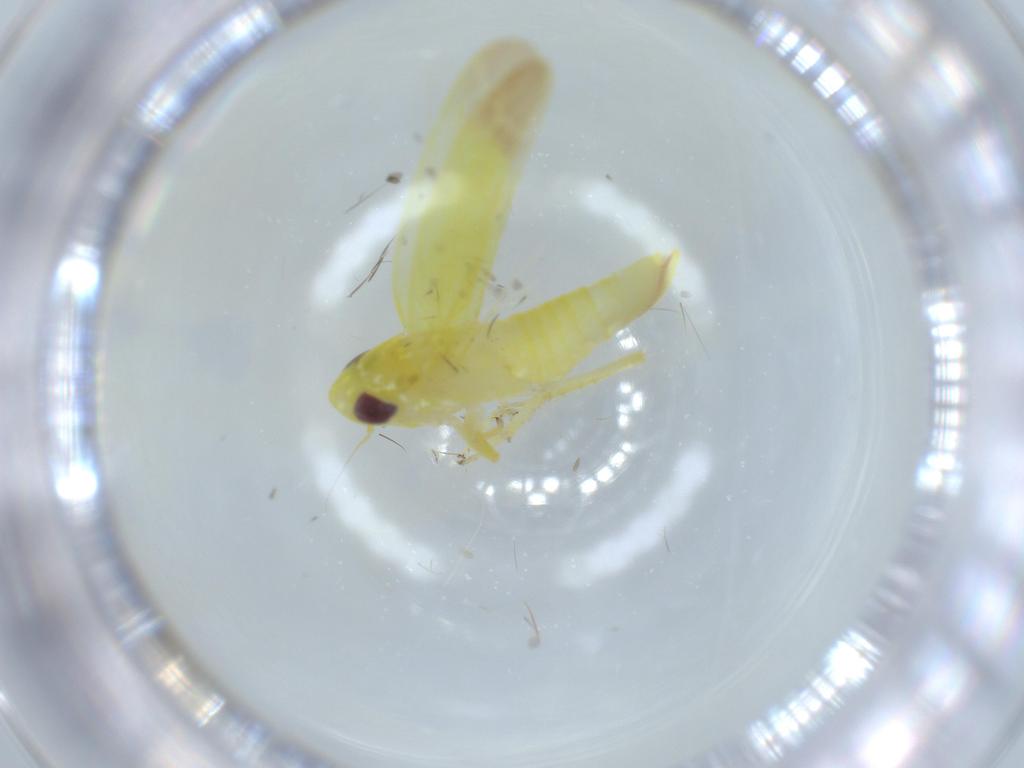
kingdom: Animalia
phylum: Arthropoda
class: Insecta
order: Hemiptera
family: Cicadellidae
